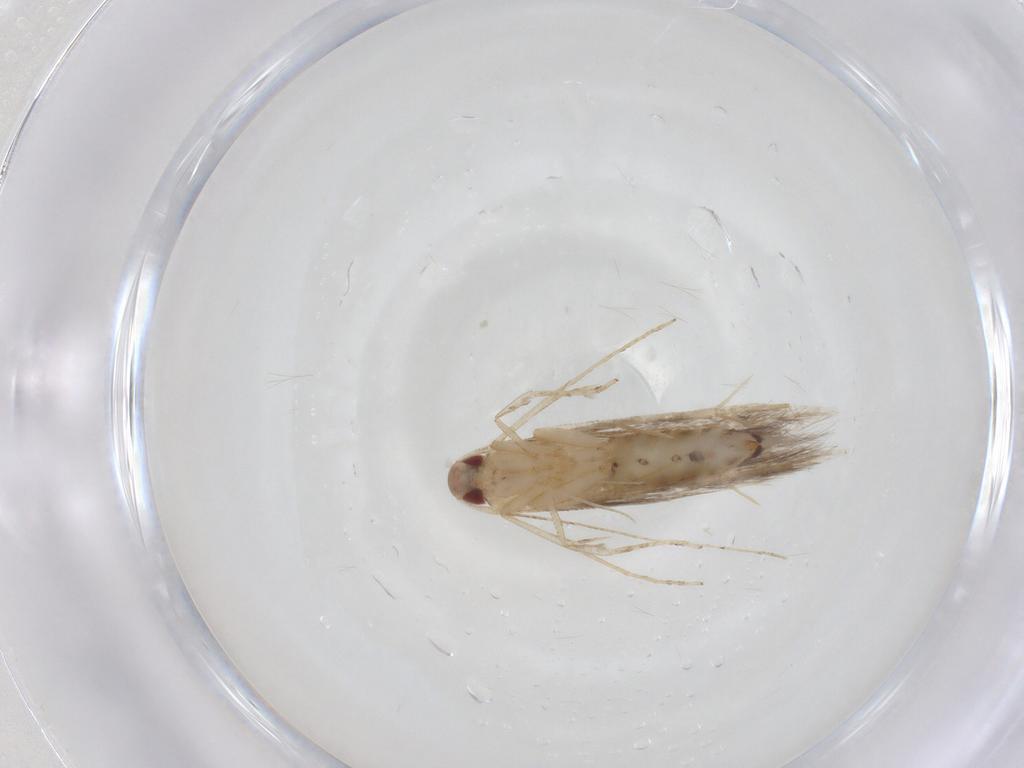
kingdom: Animalia
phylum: Arthropoda
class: Insecta
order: Lepidoptera
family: Cosmopterigidae
